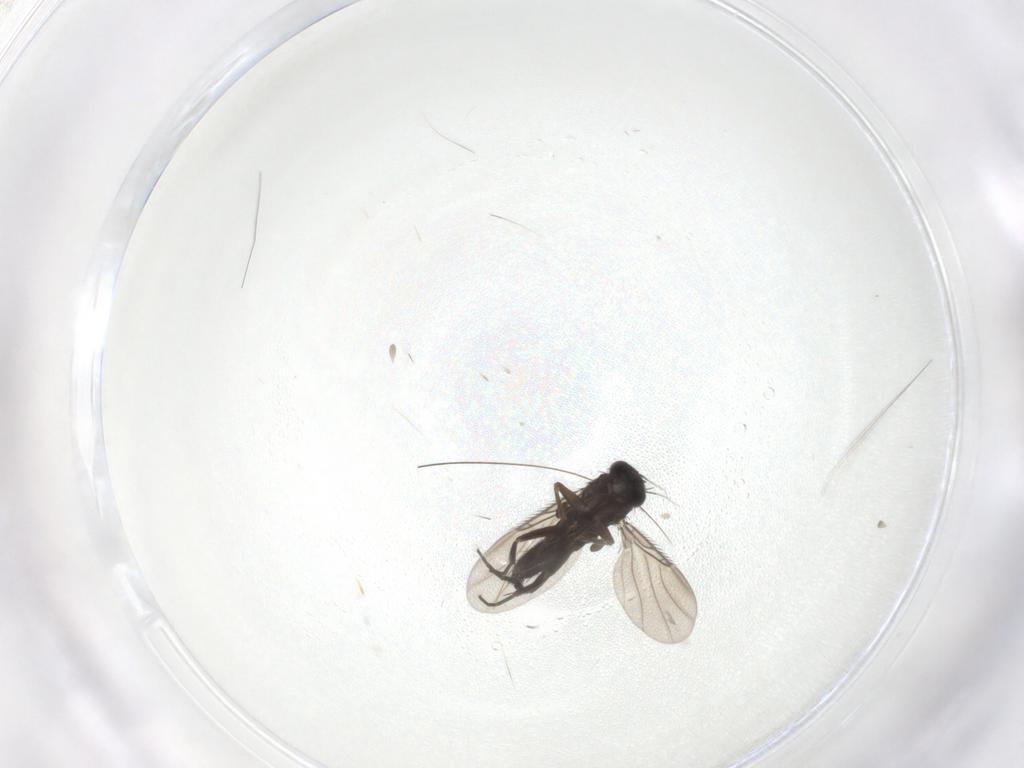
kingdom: Animalia
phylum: Arthropoda
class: Insecta
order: Diptera
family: Phoridae
